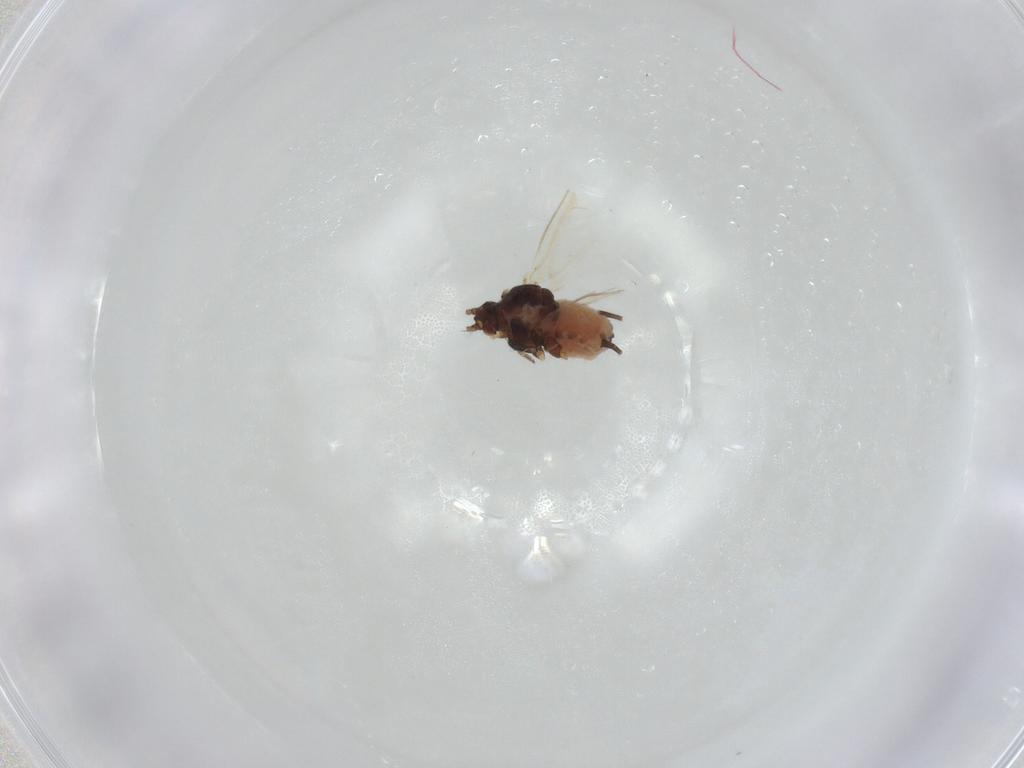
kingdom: Animalia
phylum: Arthropoda
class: Insecta
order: Hemiptera
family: Aphididae
